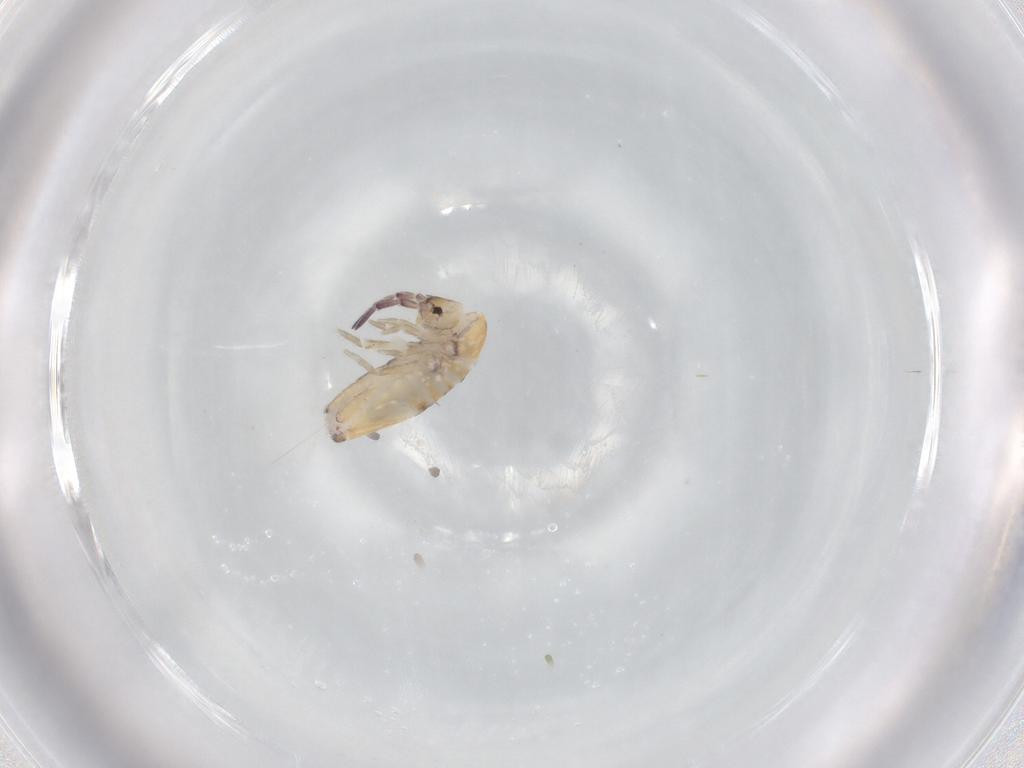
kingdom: Animalia
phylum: Arthropoda
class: Collembola
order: Entomobryomorpha
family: Entomobryidae
